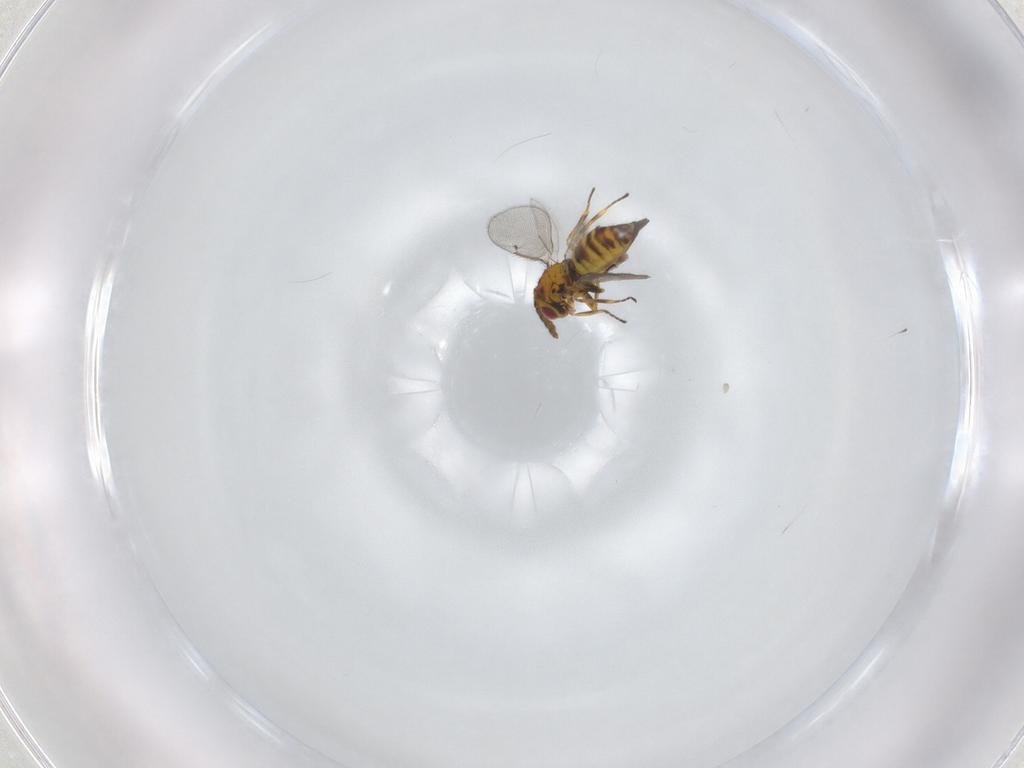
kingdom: Animalia
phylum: Arthropoda
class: Insecta
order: Hymenoptera
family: Eulophidae
